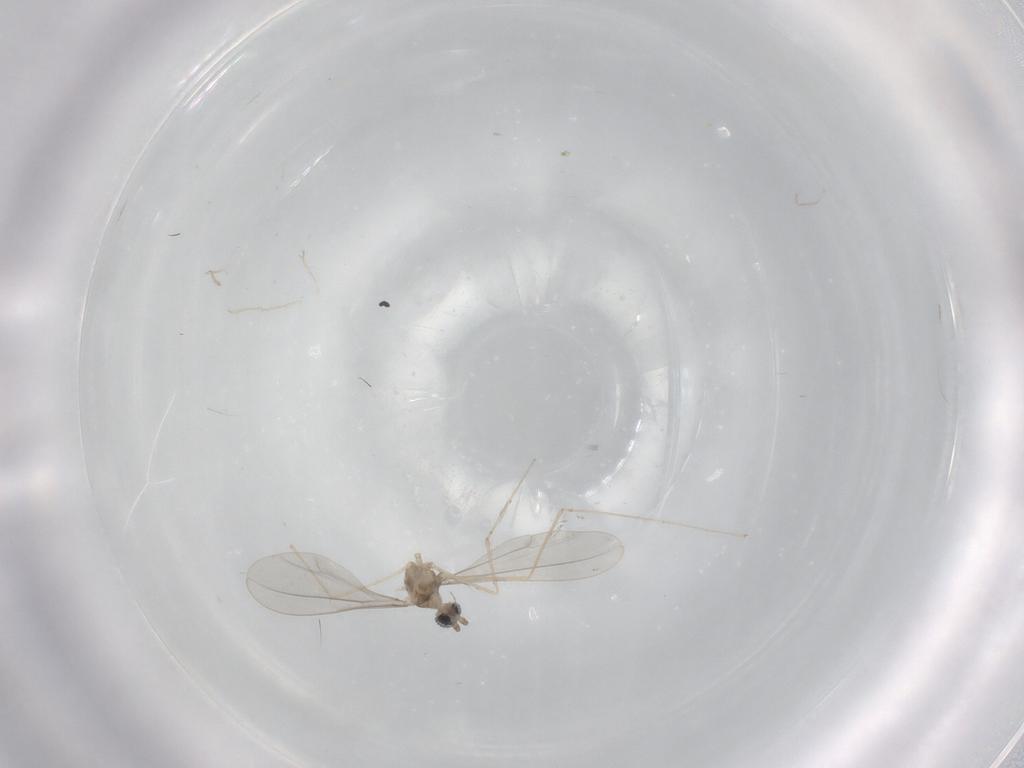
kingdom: Animalia
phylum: Arthropoda
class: Insecta
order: Diptera
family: Cecidomyiidae
